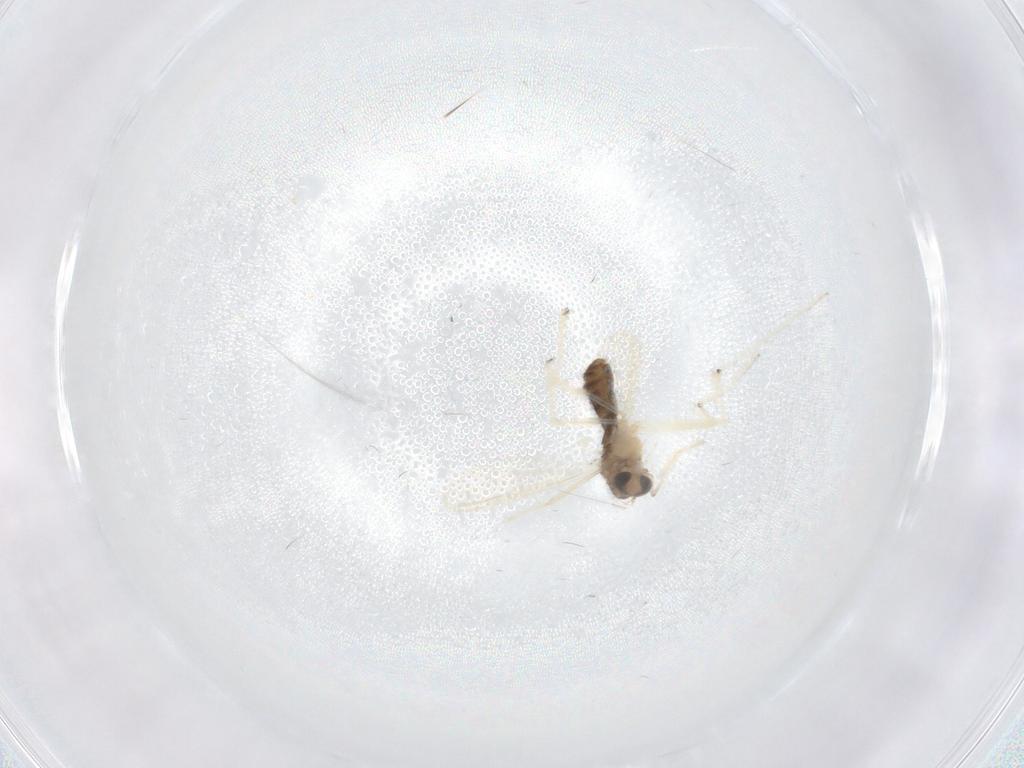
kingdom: Animalia
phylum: Arthropoda
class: Insecta
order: Diptera
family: Chironomidae
